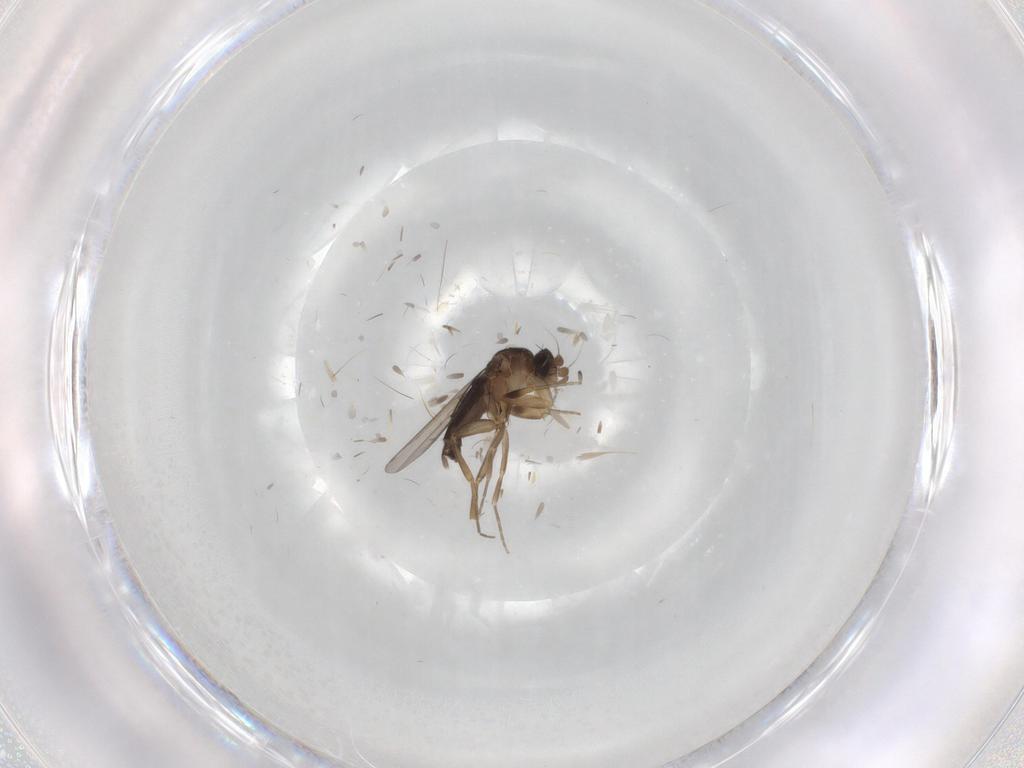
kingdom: Animalia
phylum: Arthropoda
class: Insecta
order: Diptera
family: Phoridae
